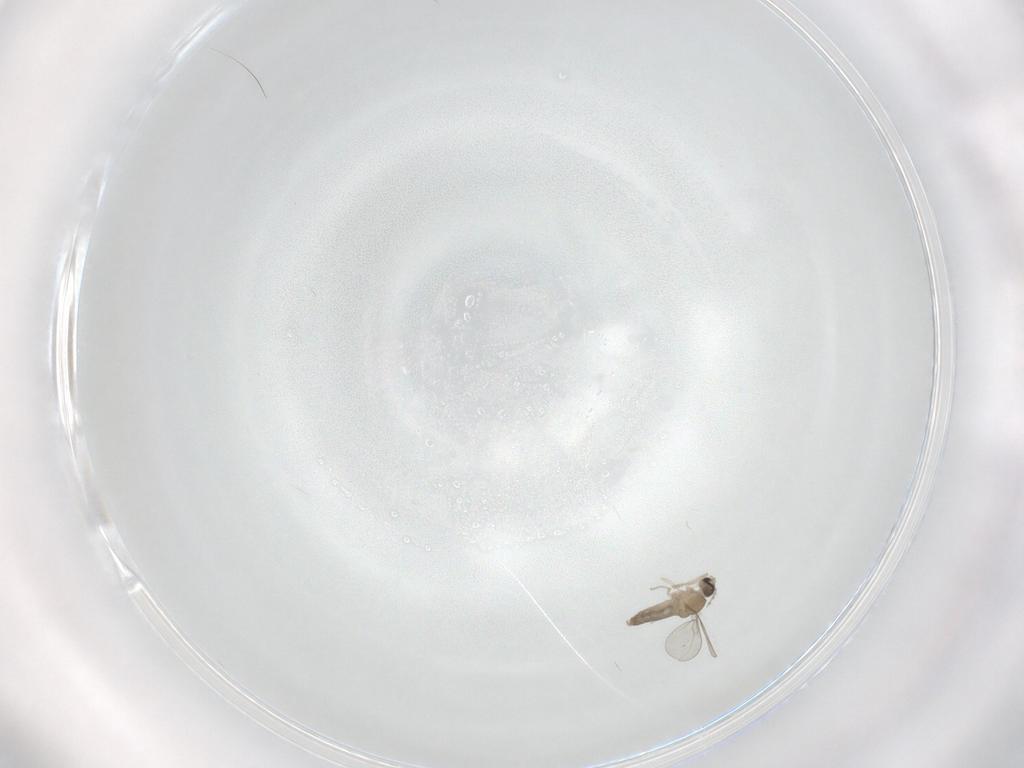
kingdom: Animalia
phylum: Arthropoda
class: Insecta
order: Diptera
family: Cecidomyiidae
